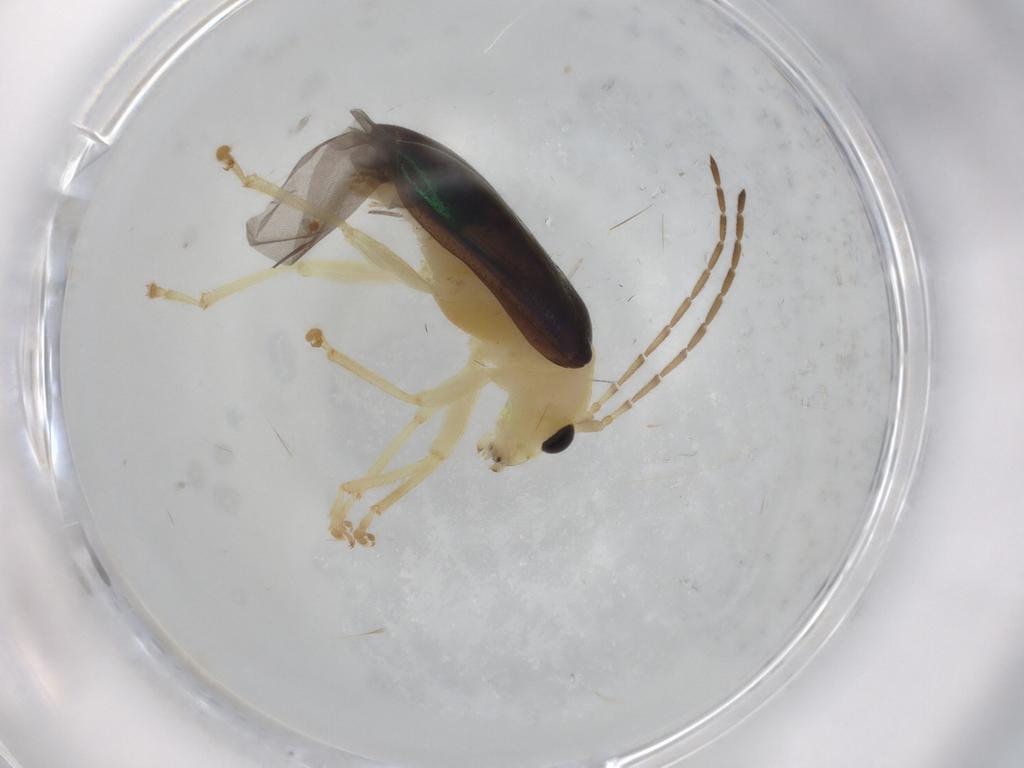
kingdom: Animalia
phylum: Arthropoda
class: Insecta
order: Coleoptera
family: Chrysomelidae
